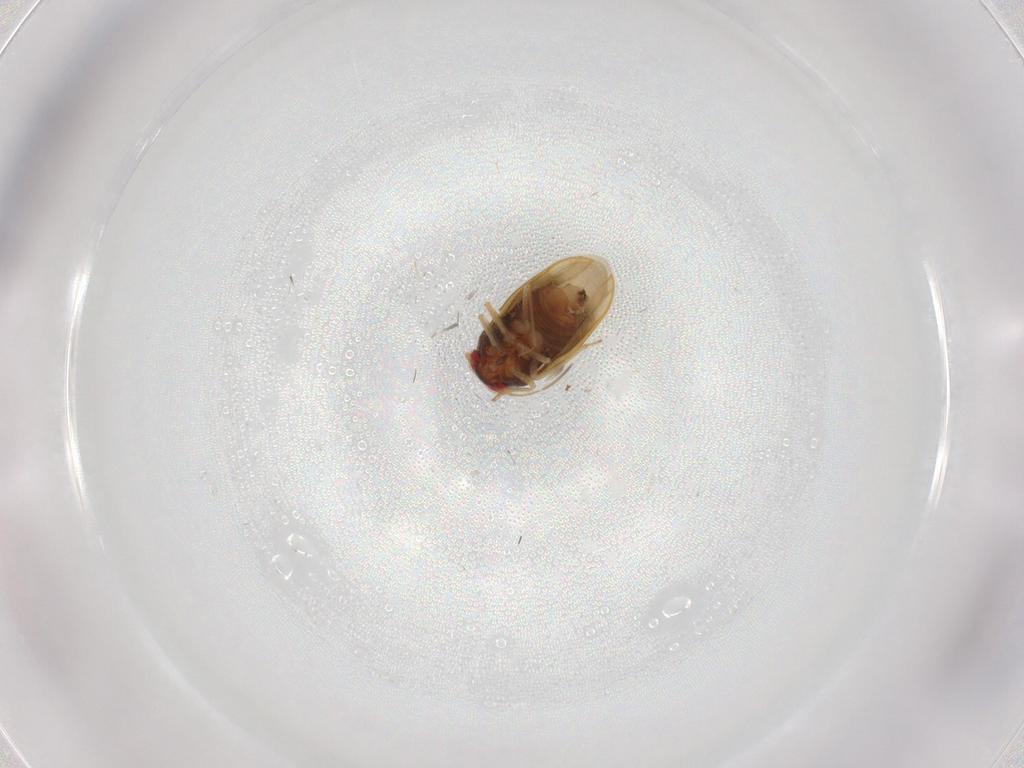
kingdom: Animalia
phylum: Arthropoda
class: Insecta
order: Hemiptera
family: Schizopteridae
